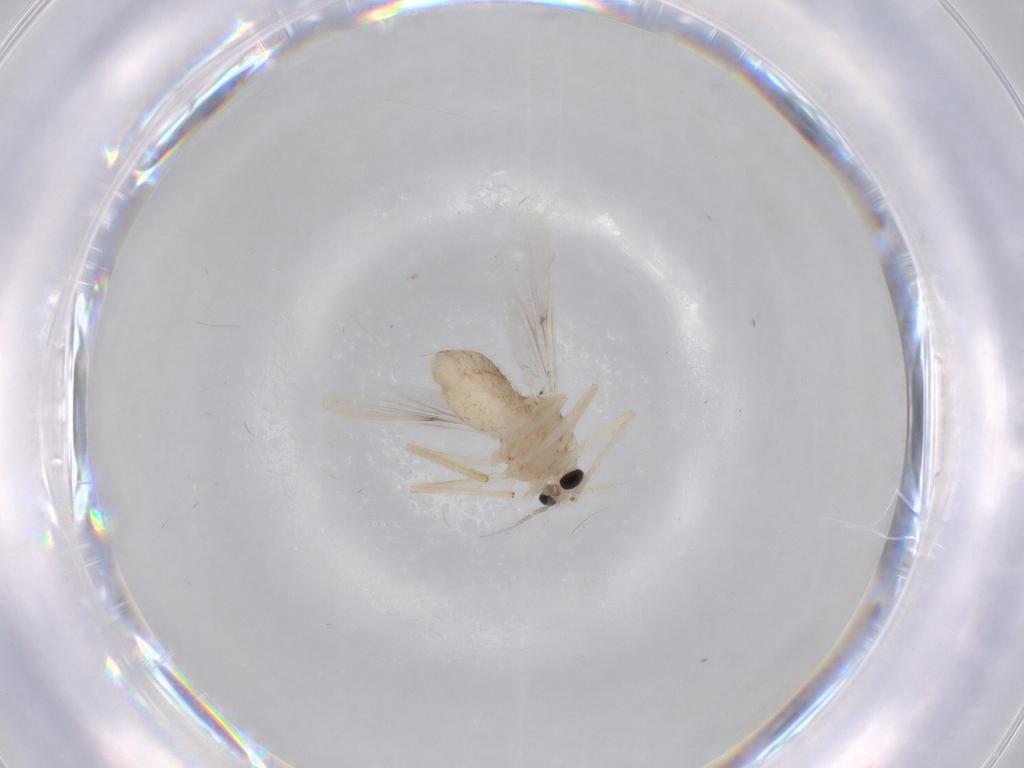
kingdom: Animalia
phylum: Arthropoda
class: Insecta
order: Diptera
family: Chironomidae
